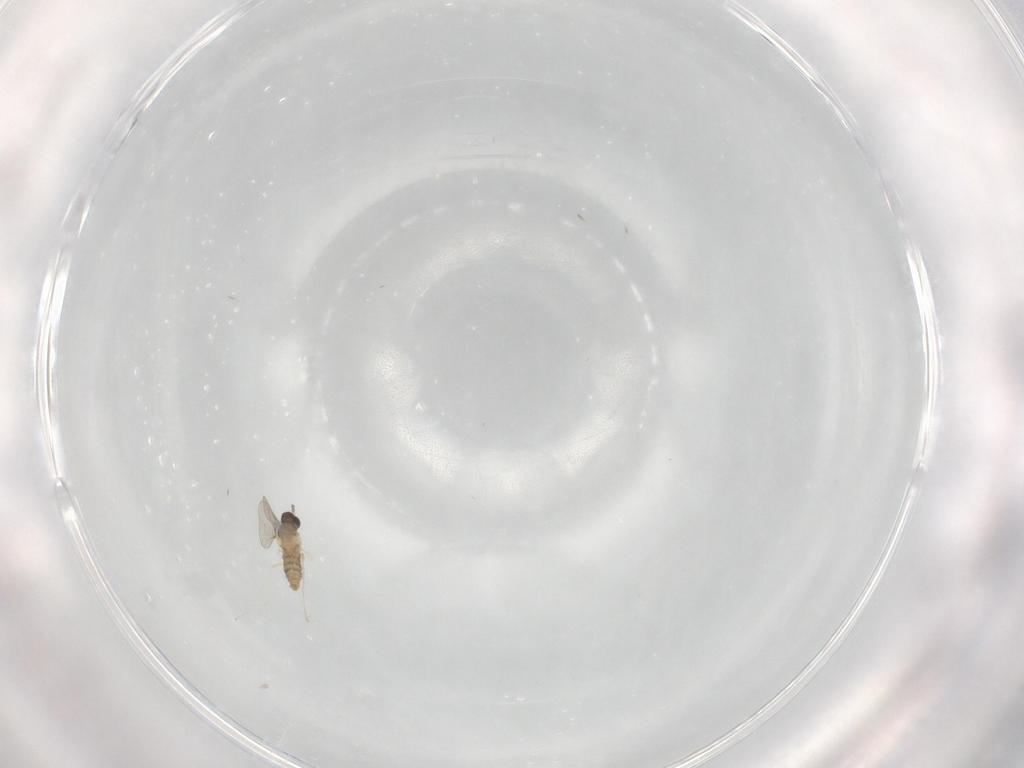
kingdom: Animalia
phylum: Arthropoda
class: Insecta
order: Diptera
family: Cecidomyiidae
